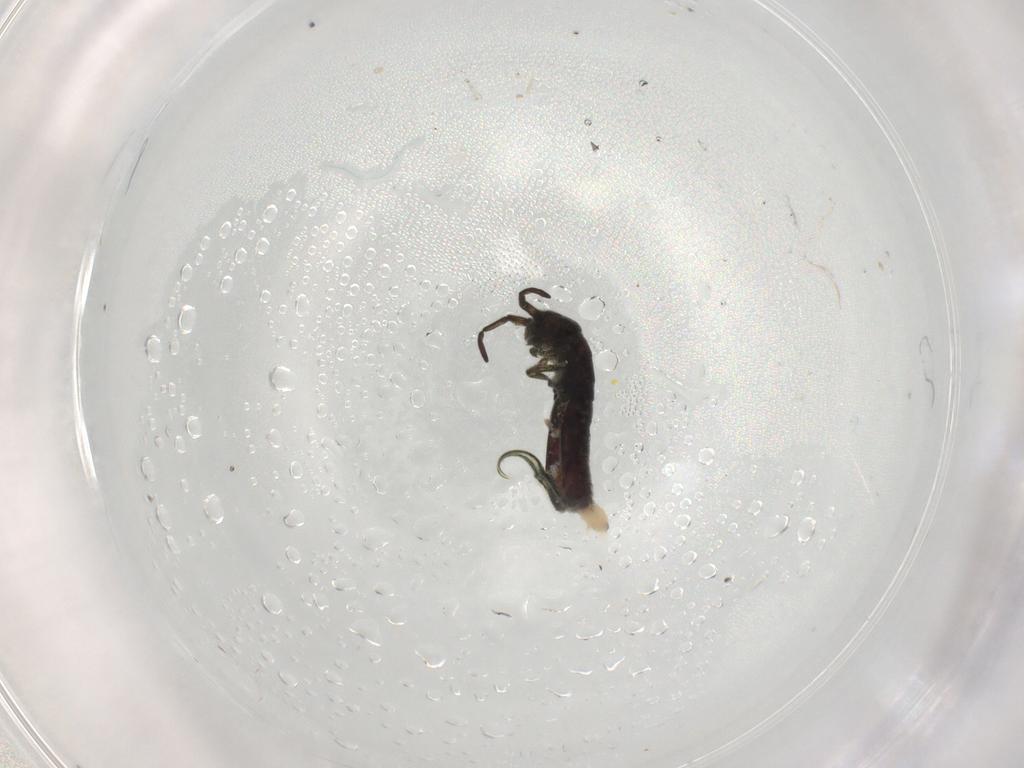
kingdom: Animalia
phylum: Arthropoda
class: Collembola
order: Entomobryomorpha
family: Isotomidae
